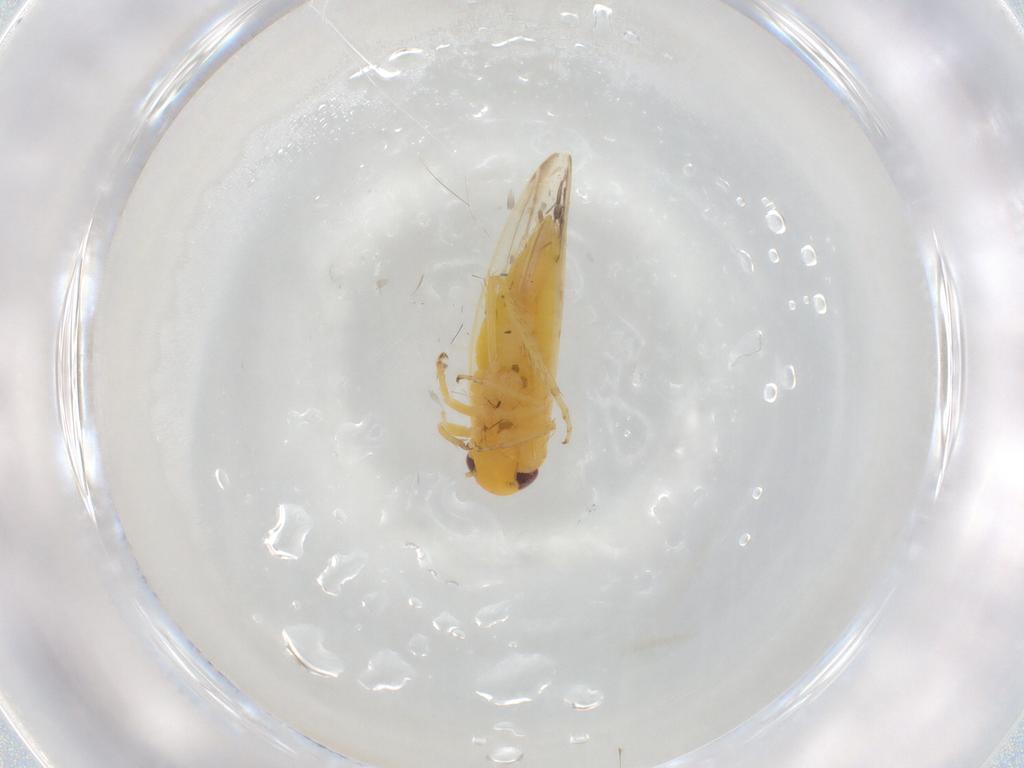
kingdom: Animalia
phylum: Arthropoda
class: Insecta
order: Hemiptera
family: Cicadellidae
